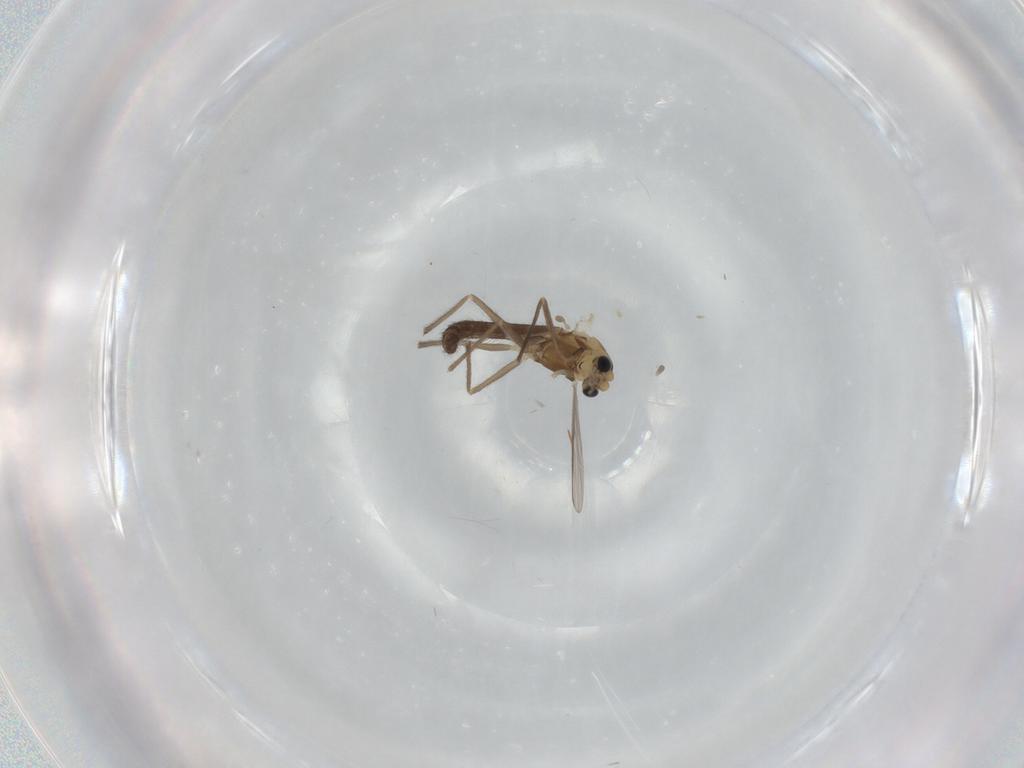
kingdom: Animalia
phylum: Arthropoda
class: Insecta
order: Diptera
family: Chironomidae
